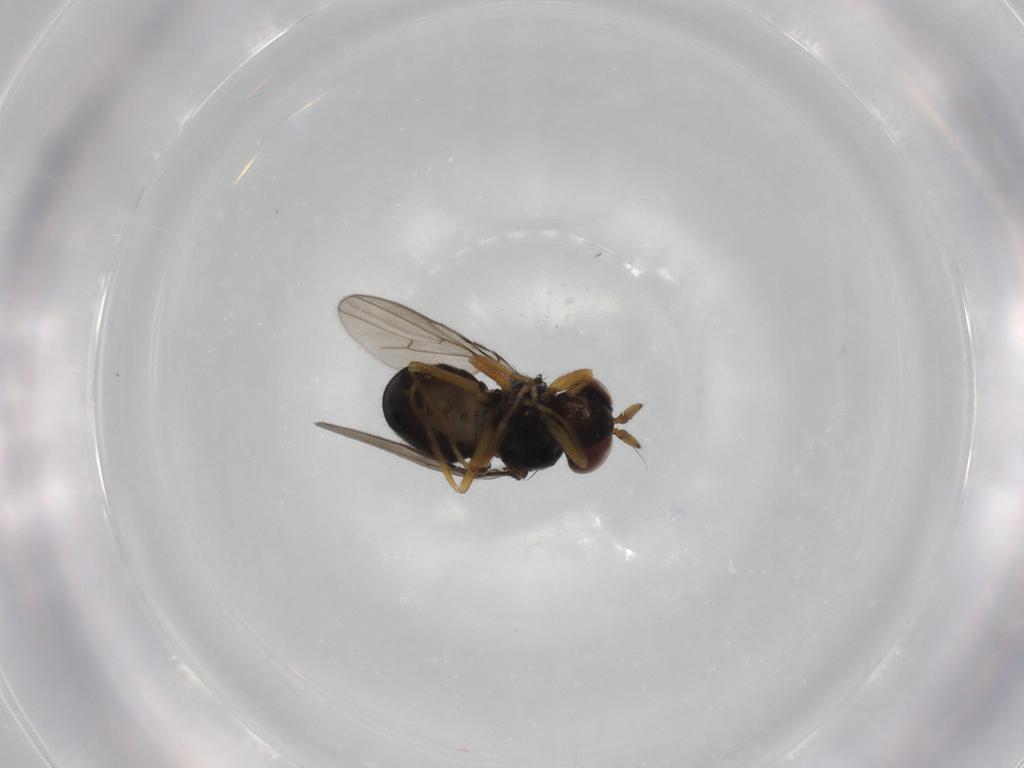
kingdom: Animalia
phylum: Arthropoda
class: Insecta
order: Diptera
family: Ephydridae
